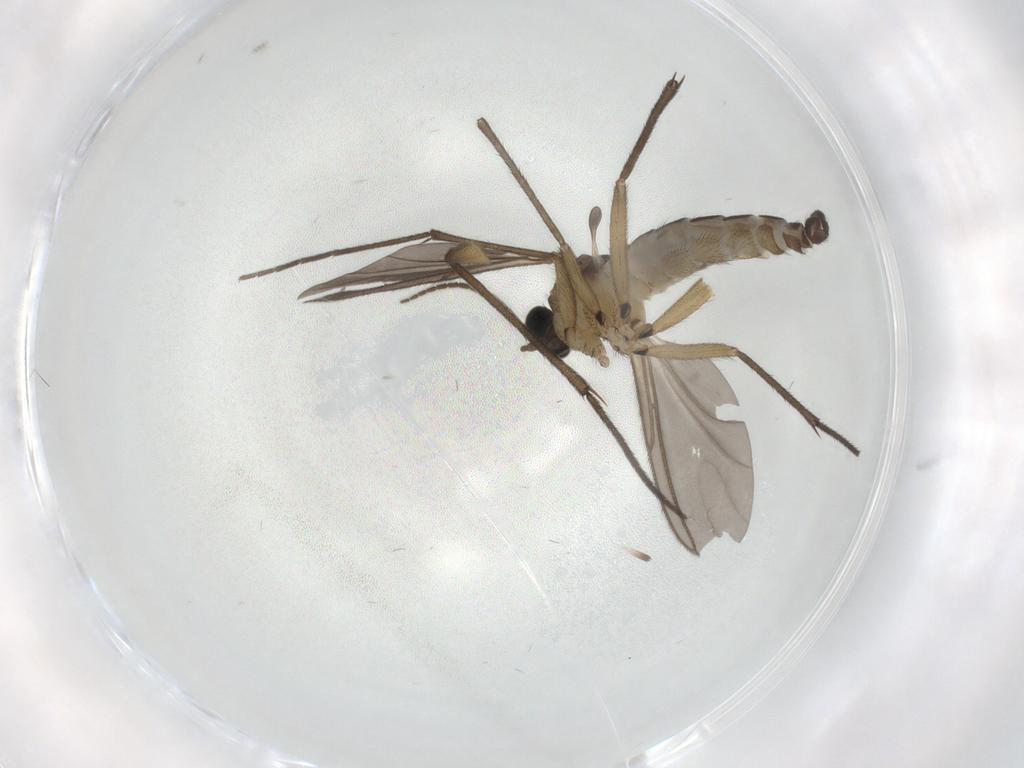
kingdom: Animalia
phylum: Arthropoda
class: Insecta
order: Diptera
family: Sciaridae
